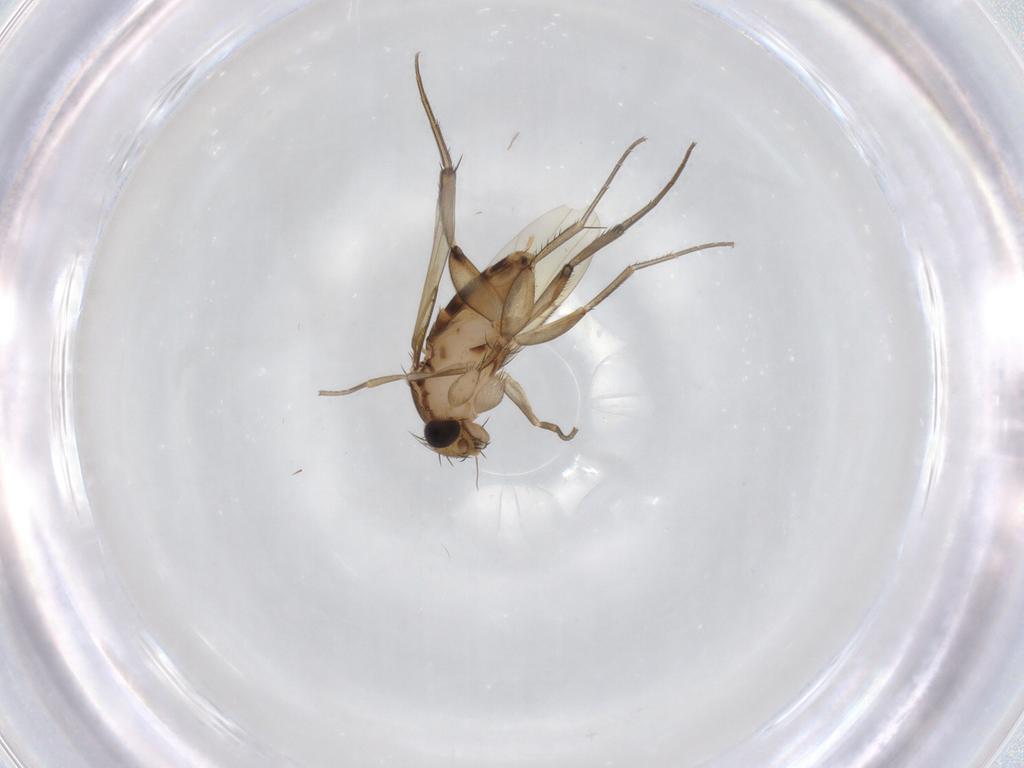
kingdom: Animalia
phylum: Arthropoda
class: Insecta
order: Diptera
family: Phoridae
